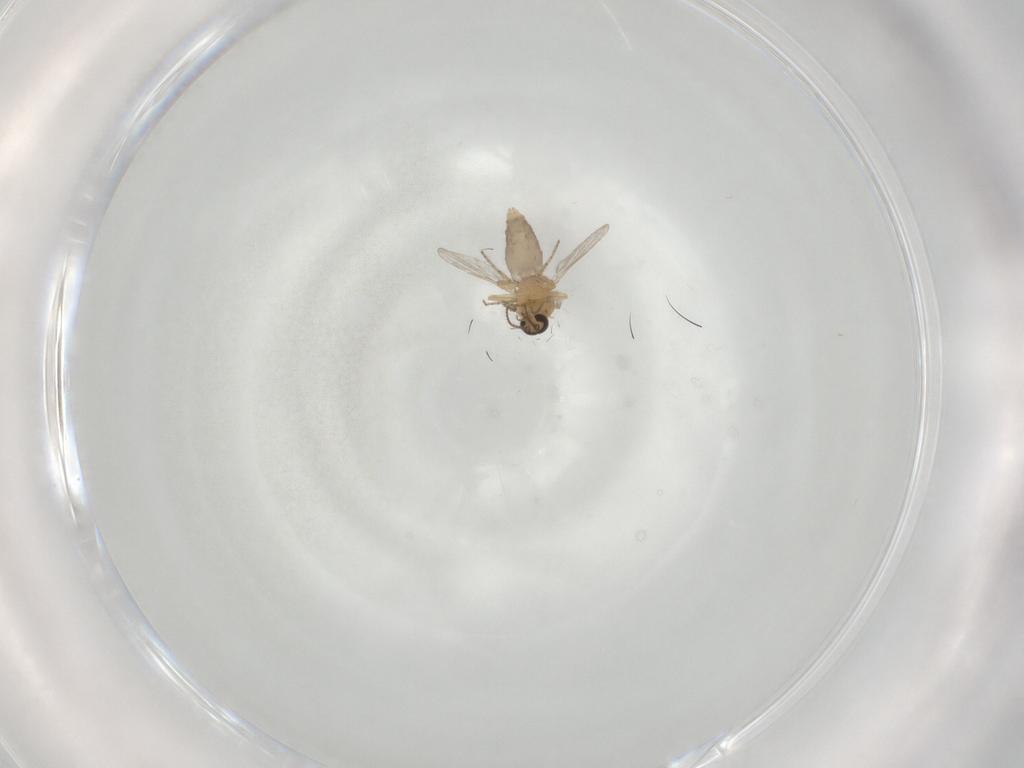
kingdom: Animalia
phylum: Arthropoda
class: Insecta
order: Diptera
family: Ceratopogonidae
